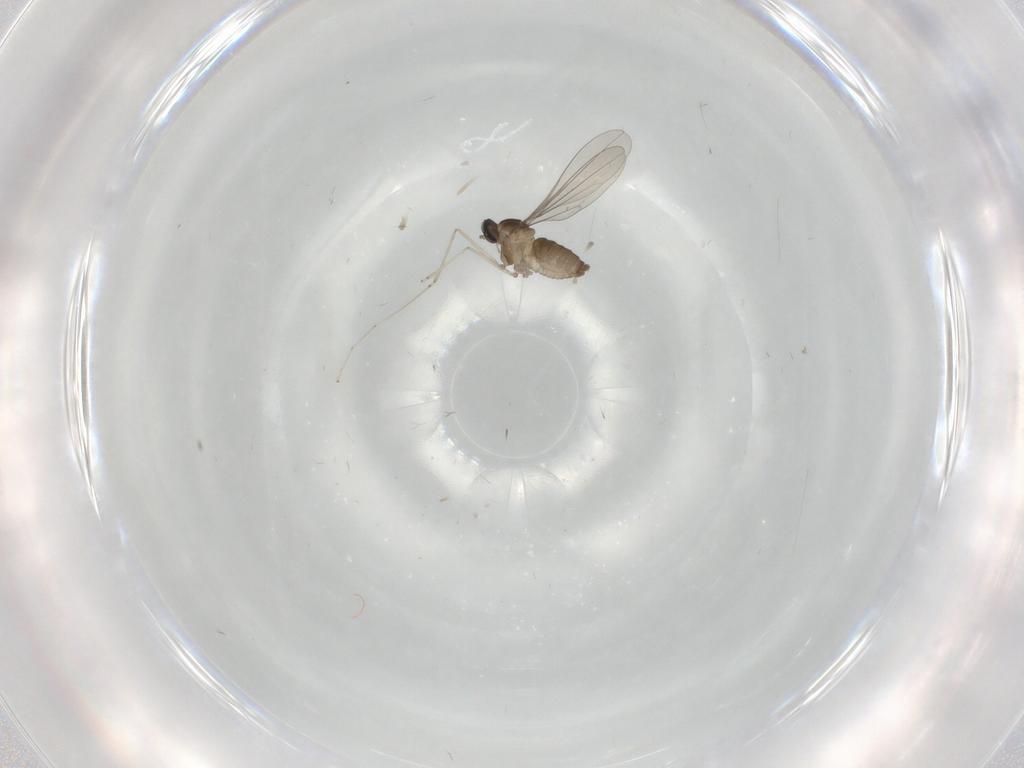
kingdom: Animalia
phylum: Arthropoda
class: Insecta
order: Diptera
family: Cecidomyiidae
